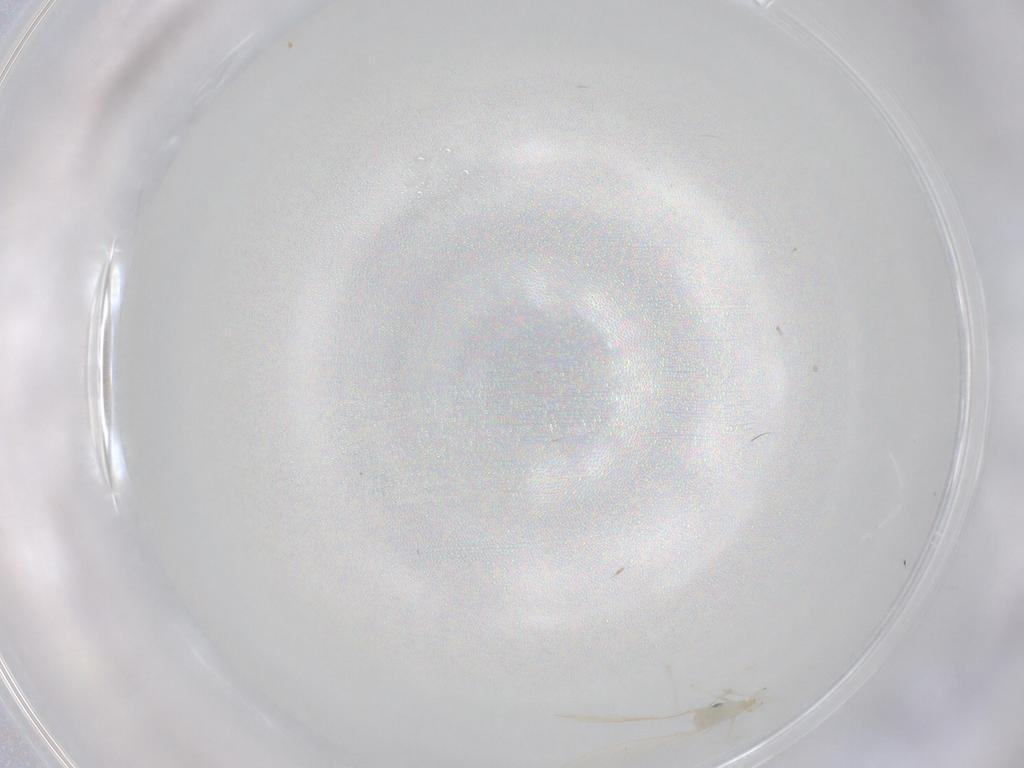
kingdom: Animalia
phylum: Arthropoda
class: Insecta
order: Diptera
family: Cecidomyiidae
